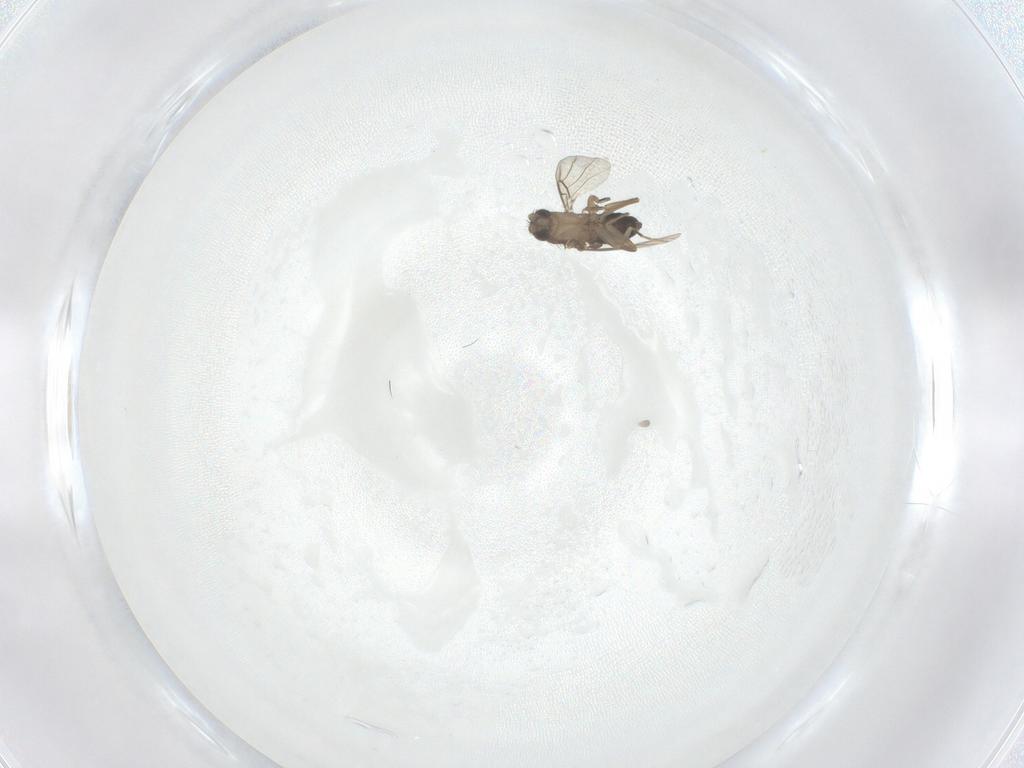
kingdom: Animalia
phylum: Arthropoda
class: Insecta
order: Diptera
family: Phoridae
